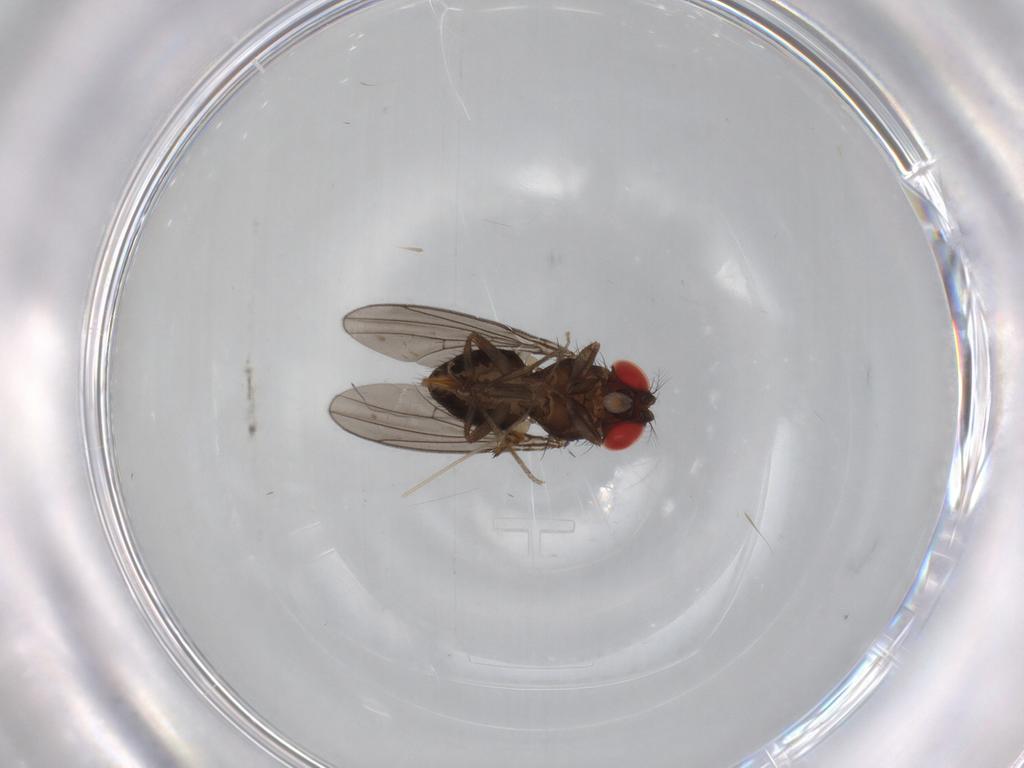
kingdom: Animalia
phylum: Arthropoda
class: Insecta
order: Diptera
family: Drosophilidae
